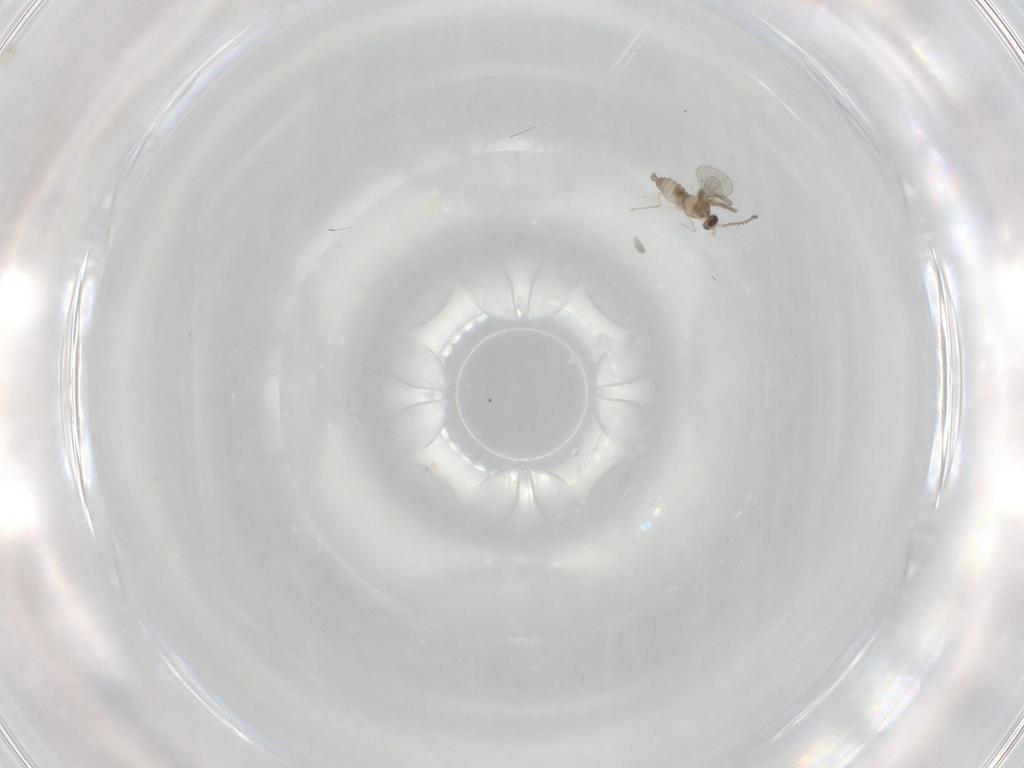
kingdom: Animalia
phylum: Arthropoda
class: Insecta
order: Diptera
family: Cecidomyiidae
